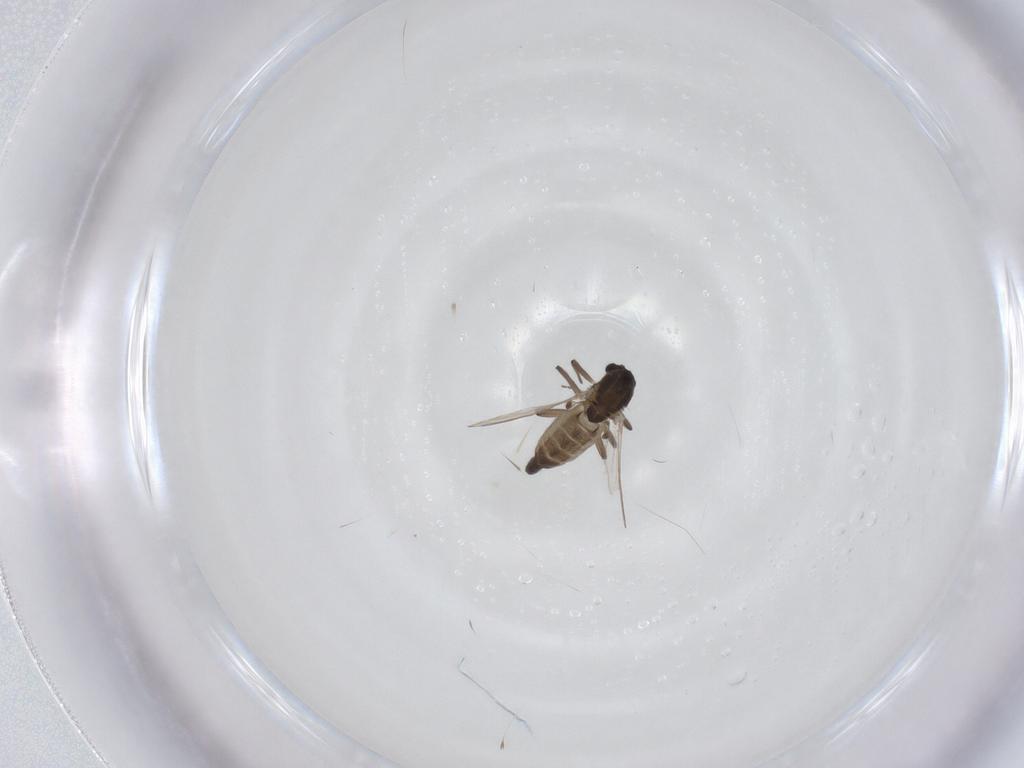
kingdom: Animalia
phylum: Arthropoda
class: Insecta
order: Diptera
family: Chironomidae
